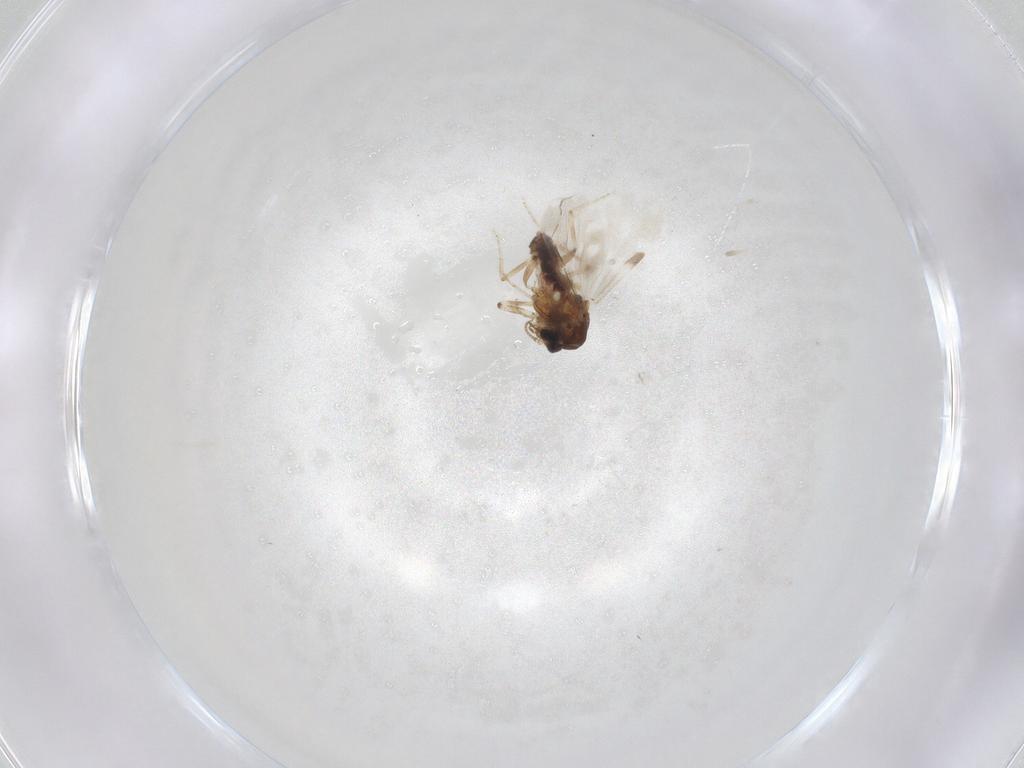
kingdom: Animalia
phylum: Arthropoda
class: Insecta
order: Diptera
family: Ceratopogonidae
